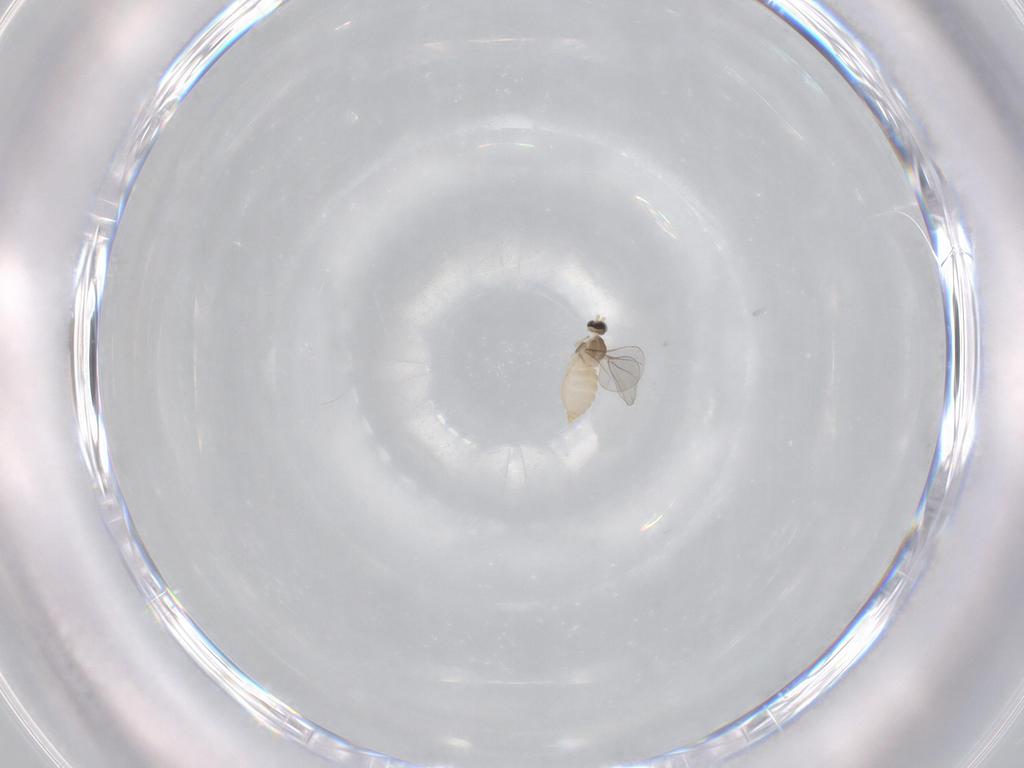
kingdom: Animalia
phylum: Arthropoda
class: Insecta
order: Diptera
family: Cecidomyiidae
